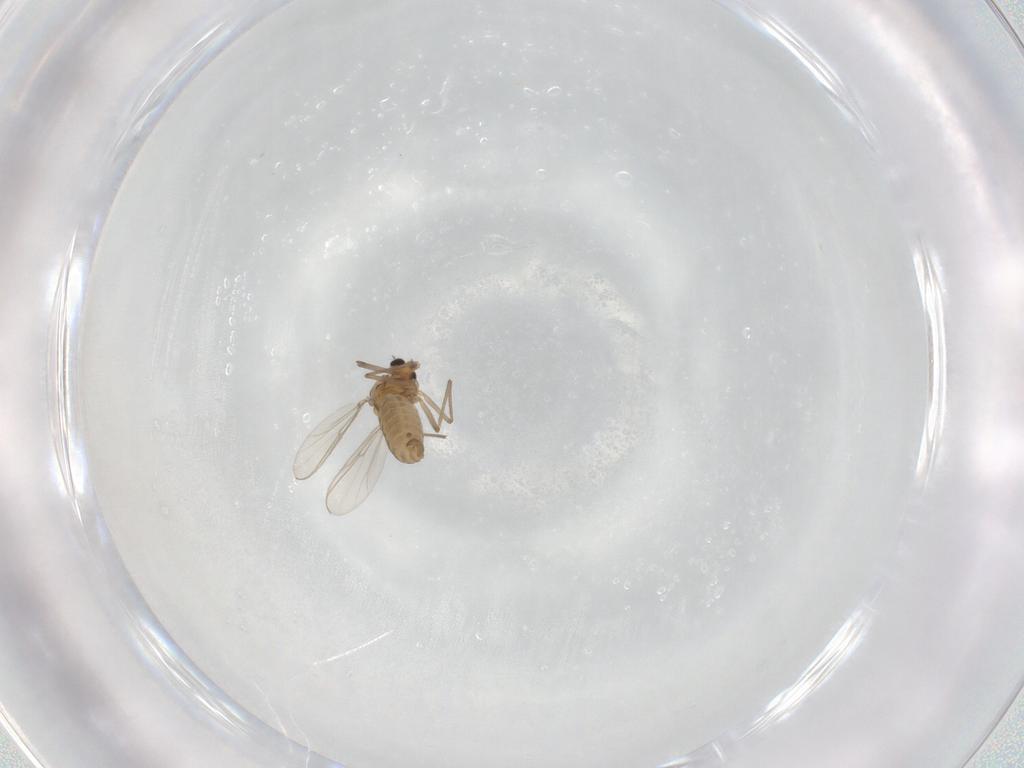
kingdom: Animalia
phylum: Arthropoda
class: Insecta
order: Diptera
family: Chironomidae
